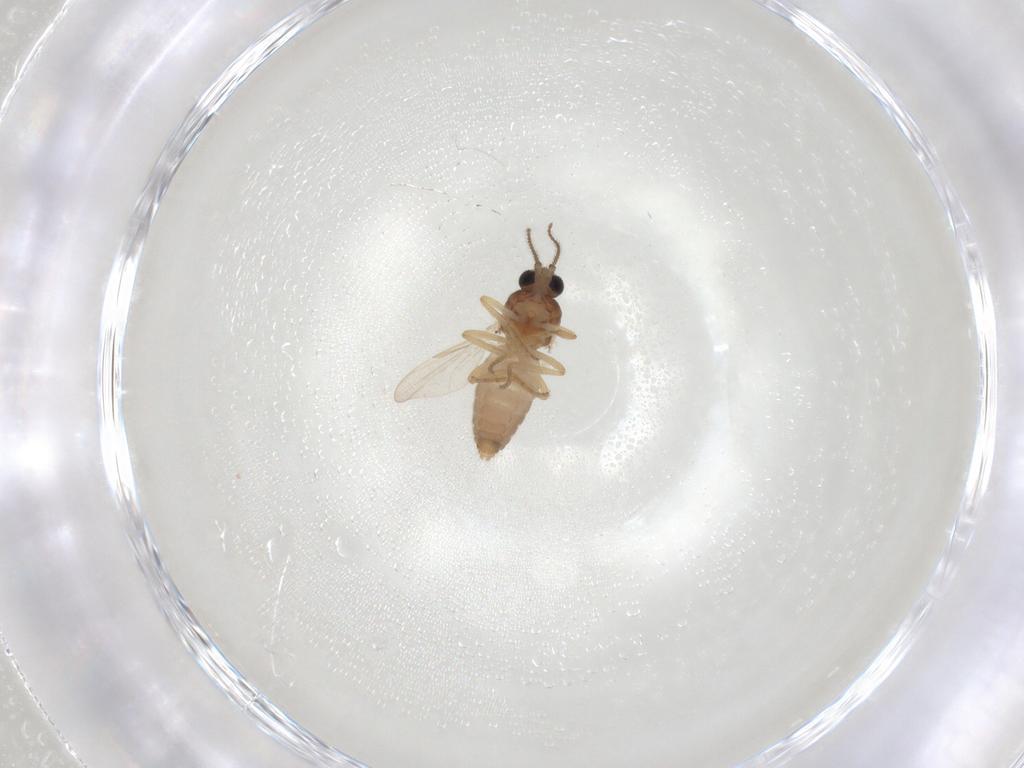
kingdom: Animalia
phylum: Arthropoda
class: Insecta
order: Diptera
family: Ceratopogonidae
